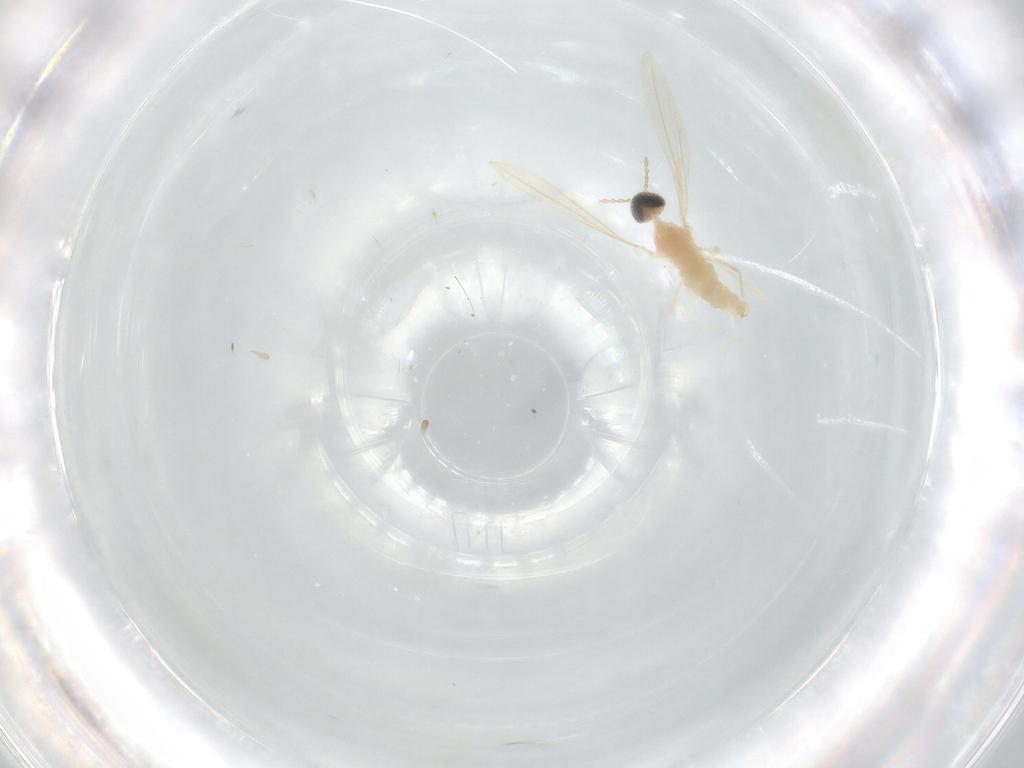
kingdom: Animalia
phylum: Arthropoda
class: Insecta
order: Diptera
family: Cecidomyiidae
